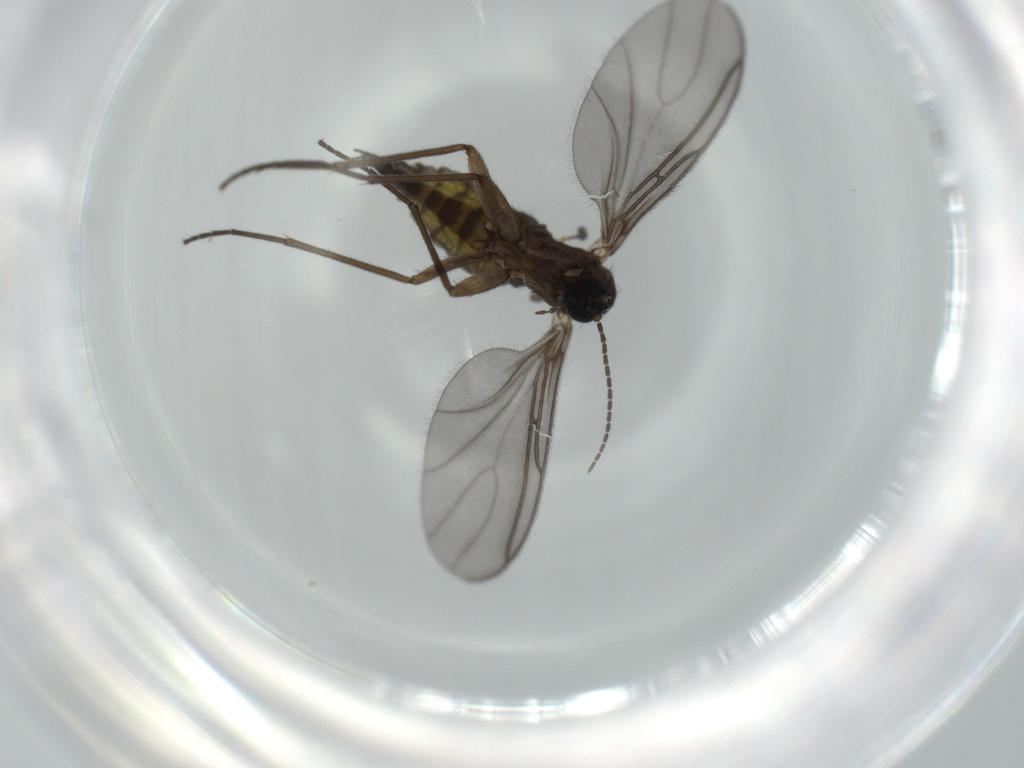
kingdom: Animalia
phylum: Arthropoda
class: Insecta
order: Diptera
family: Sciaridae
